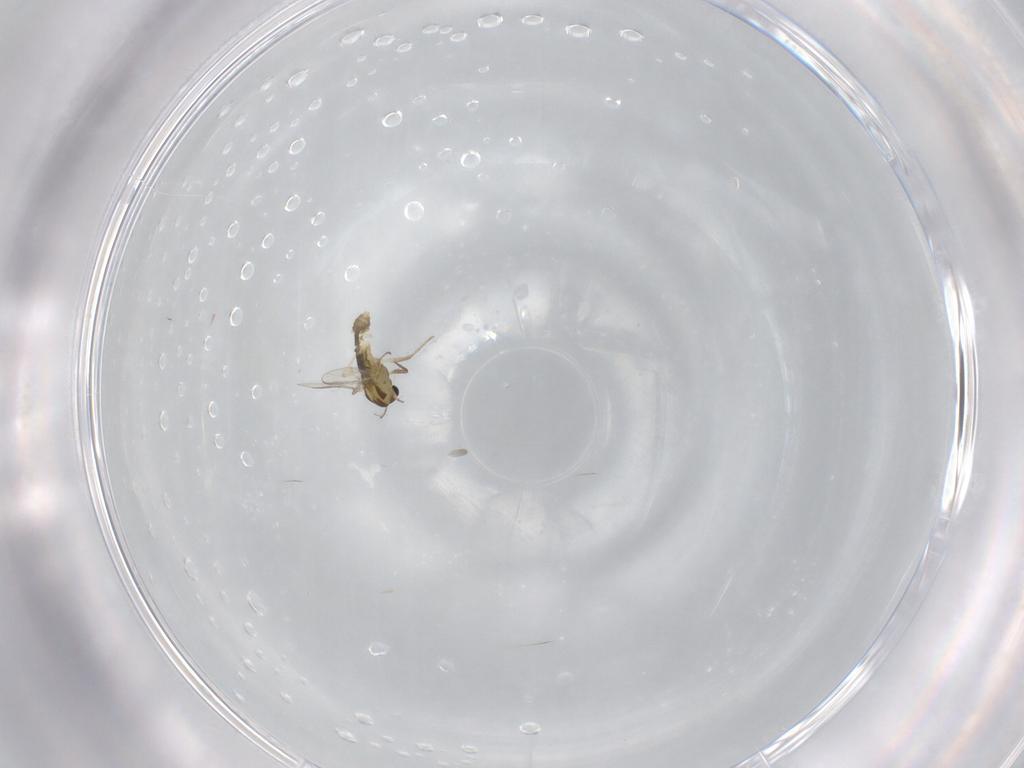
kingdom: Animalia
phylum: Arthropoda
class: Insecta
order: Diptera
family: Chironomidae
